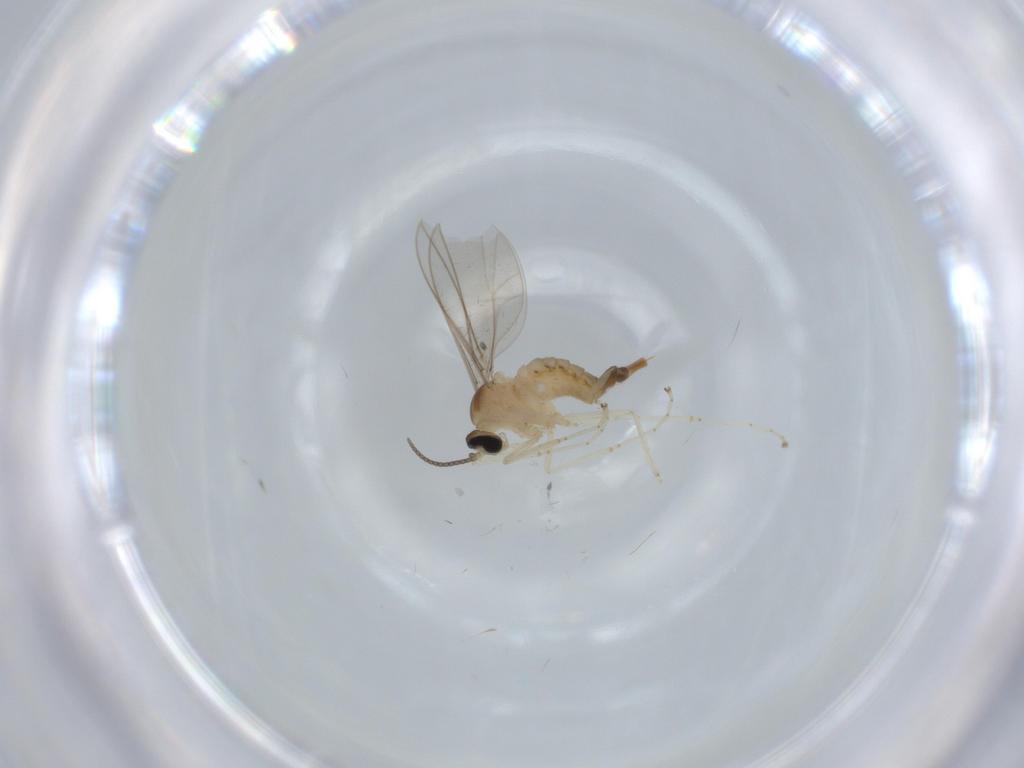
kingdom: Animalia
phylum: Arthropoda
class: Insecta
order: Diptera
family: Cecidomyiidae
